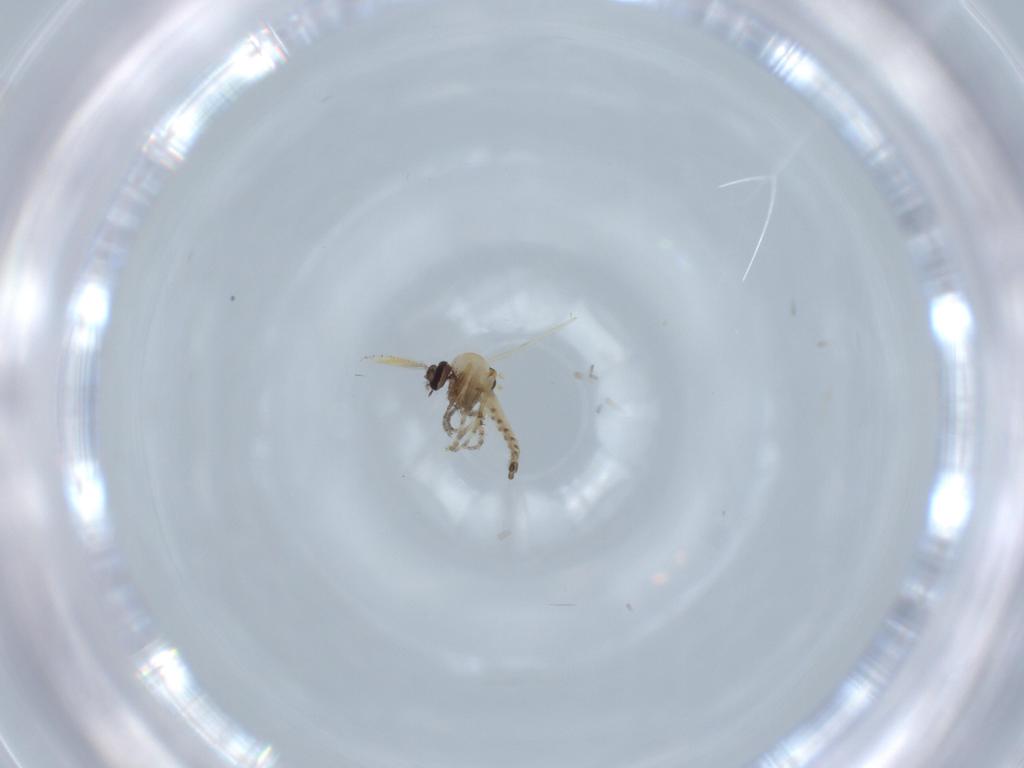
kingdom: Animalia
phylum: Arthropoda
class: Insecta
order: Diptera
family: Ceratopogonidae
